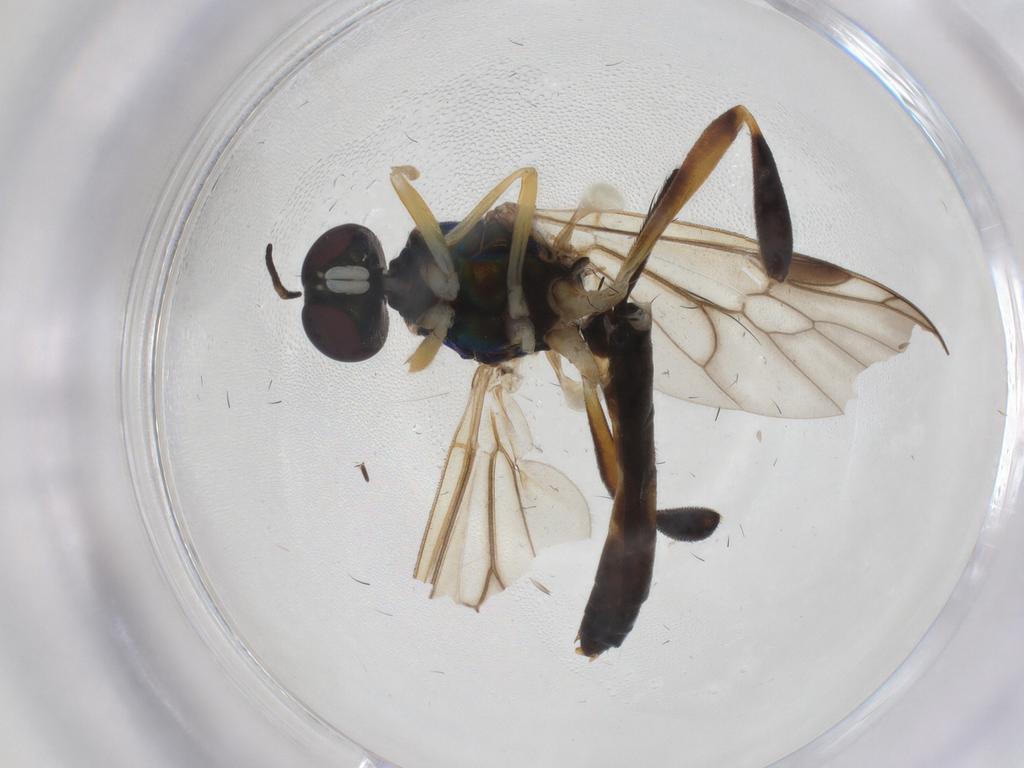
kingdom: Animalia
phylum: Arthropoda
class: Insecta
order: Diptera
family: Stratiomyidae
